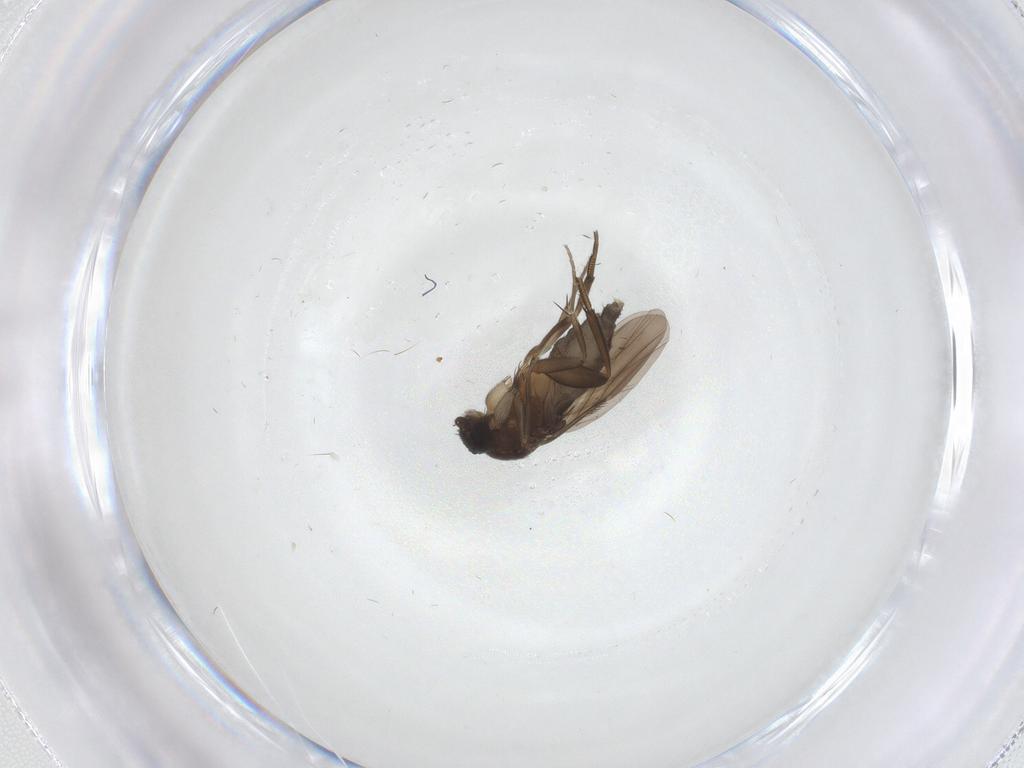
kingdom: Animalia
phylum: Arthropoda
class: Insecta
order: Diptera
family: Phoridae
